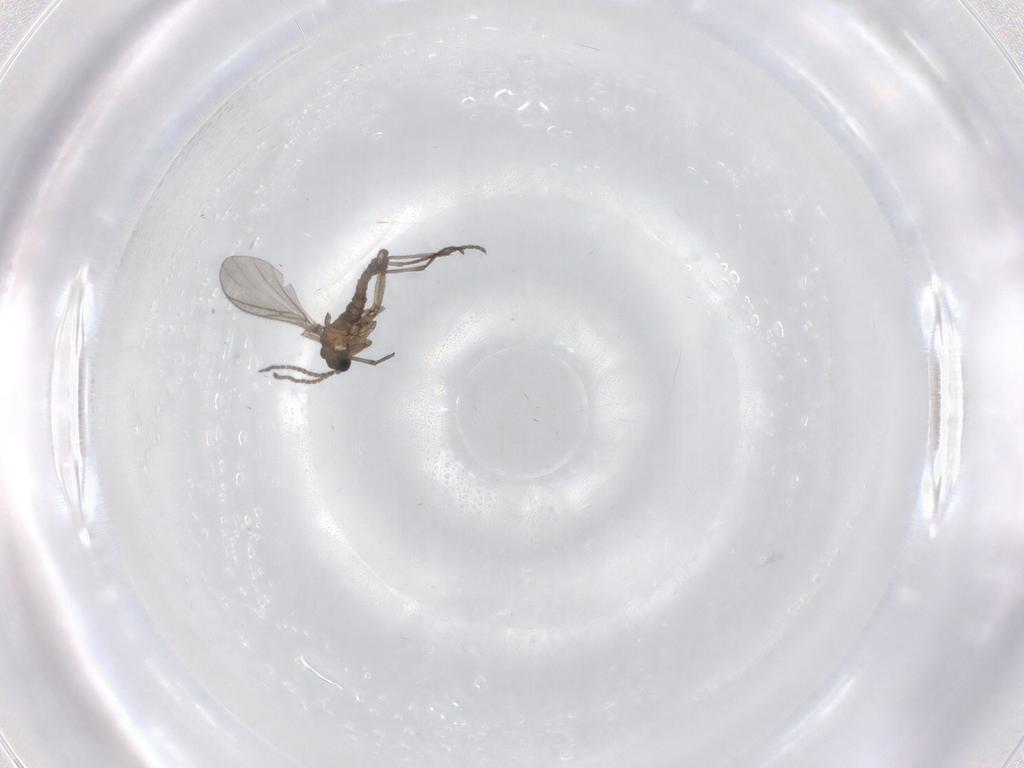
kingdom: Animalia
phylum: Arthropoda
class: Insecta
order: Diptera
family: Sciaridae
